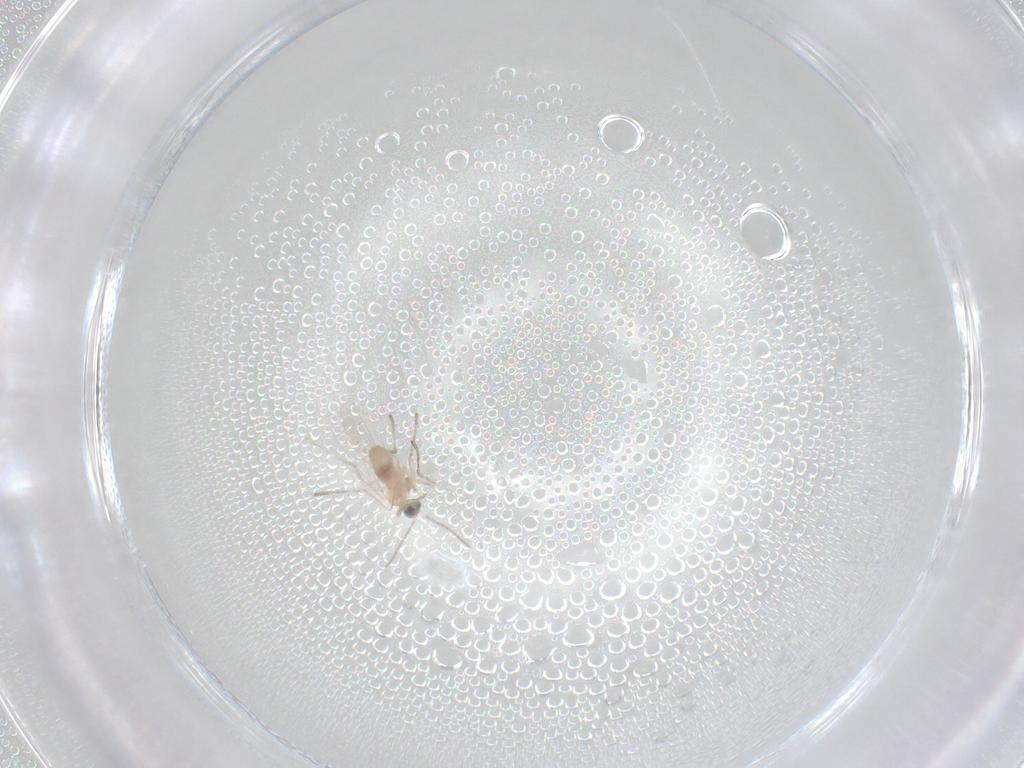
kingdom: Animalia
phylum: Arthropoda
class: Insecta
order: Diptera
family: Cecidomyiidae
